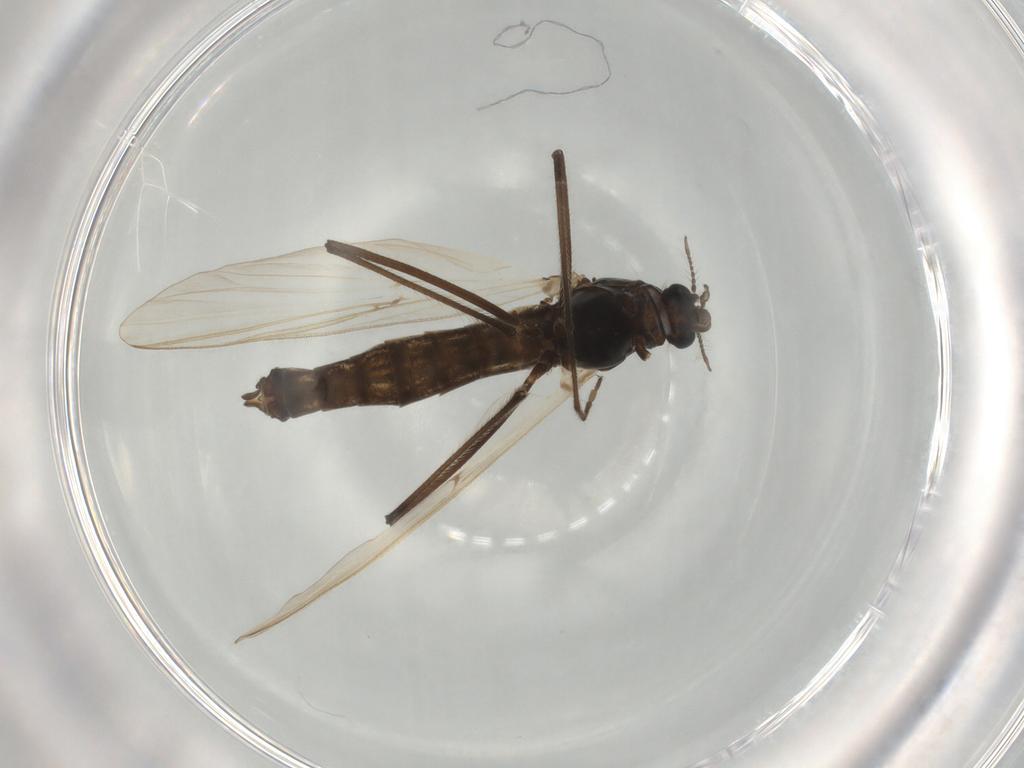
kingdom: Animalia
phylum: Arthropoda
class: Insecta
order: Diptera
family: Chironomidae
